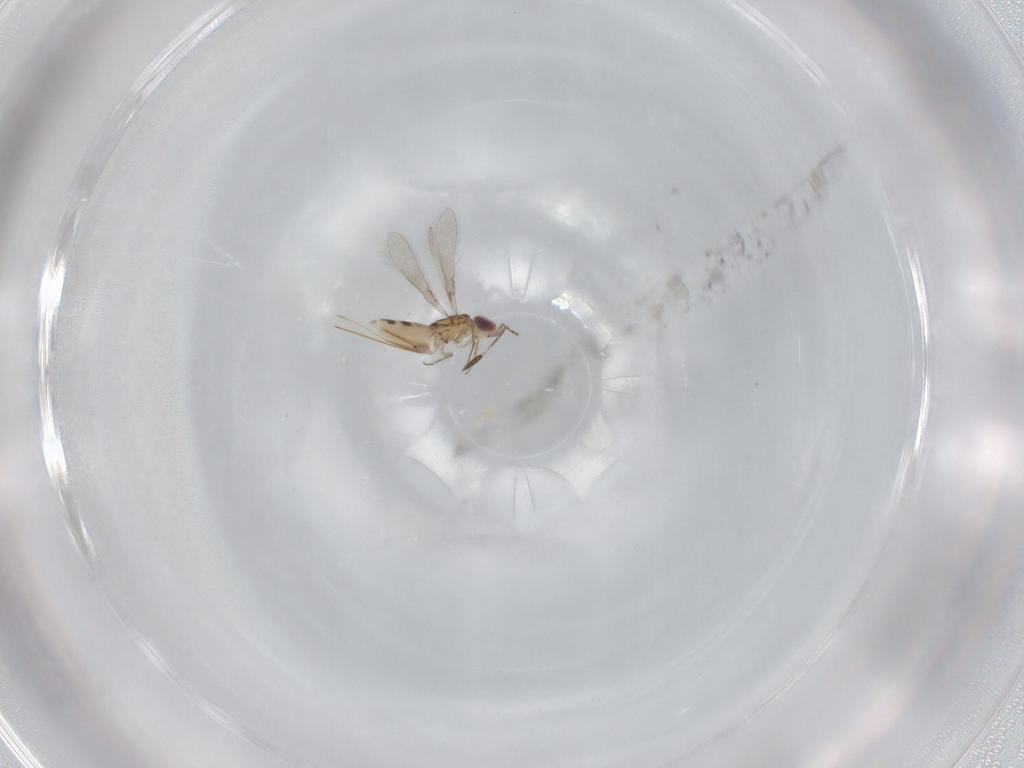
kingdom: Animalia
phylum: Arthropoda
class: Insecta
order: Hymenoptera
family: Mymaridae
